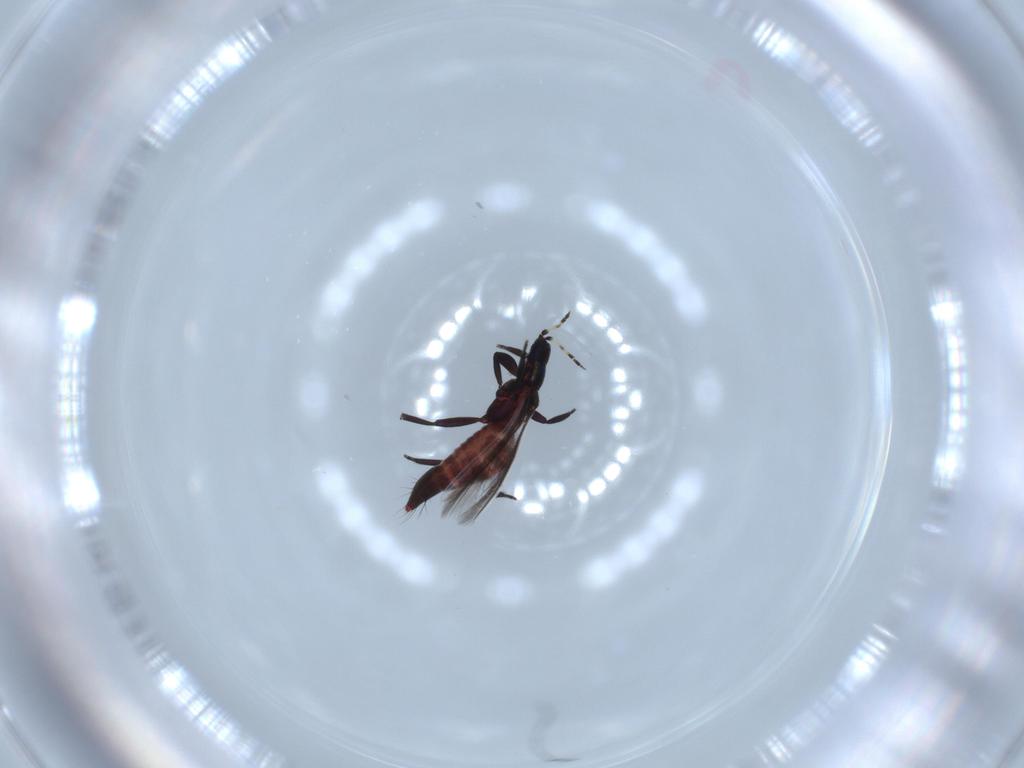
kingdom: Animalia
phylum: Arthropoda
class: Insecta
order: Thysanoptera
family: Aeolothripidae
